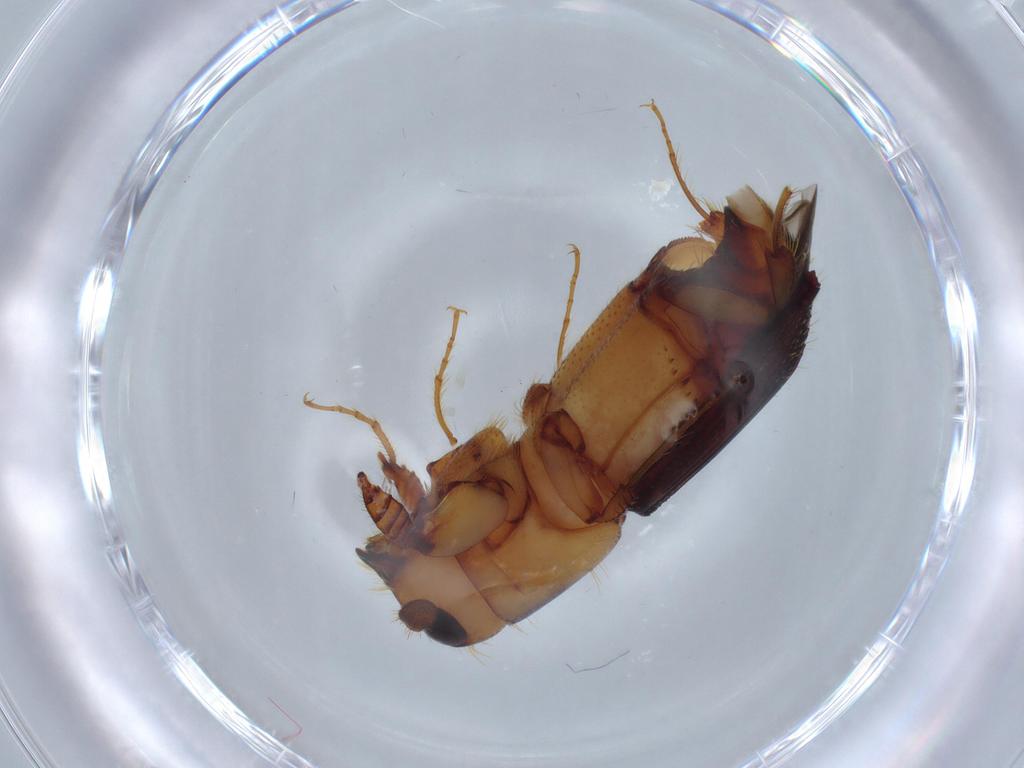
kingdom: Animalia
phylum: Arthropoda
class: Insecta
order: Coleoptera
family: Curculionidae
